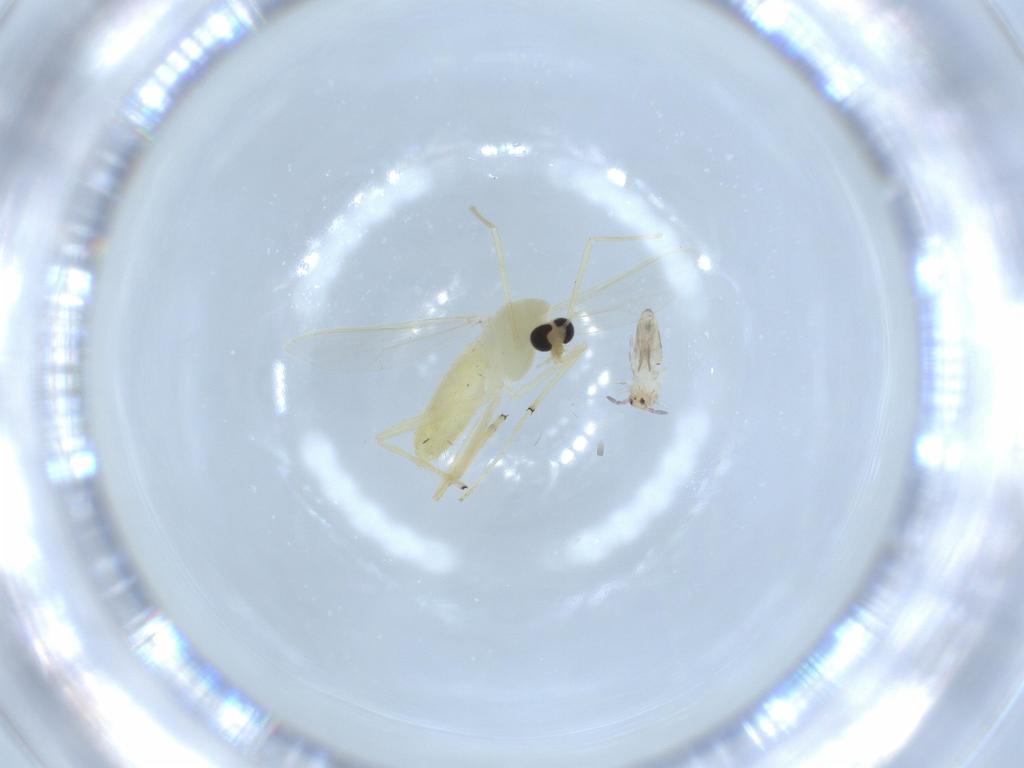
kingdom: Animalia
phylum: Arthropoda
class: Insecta
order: Diptera
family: Chironomidae
